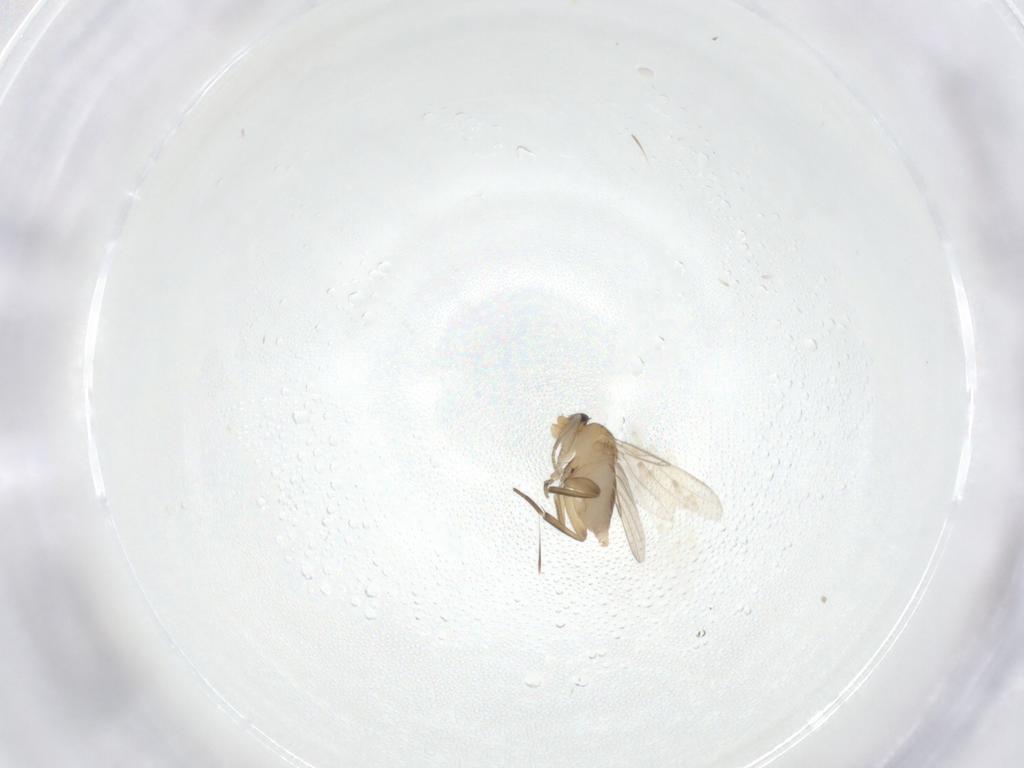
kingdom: Animalia
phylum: Arthropoda
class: Insecta
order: Diptera
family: Phoridae
